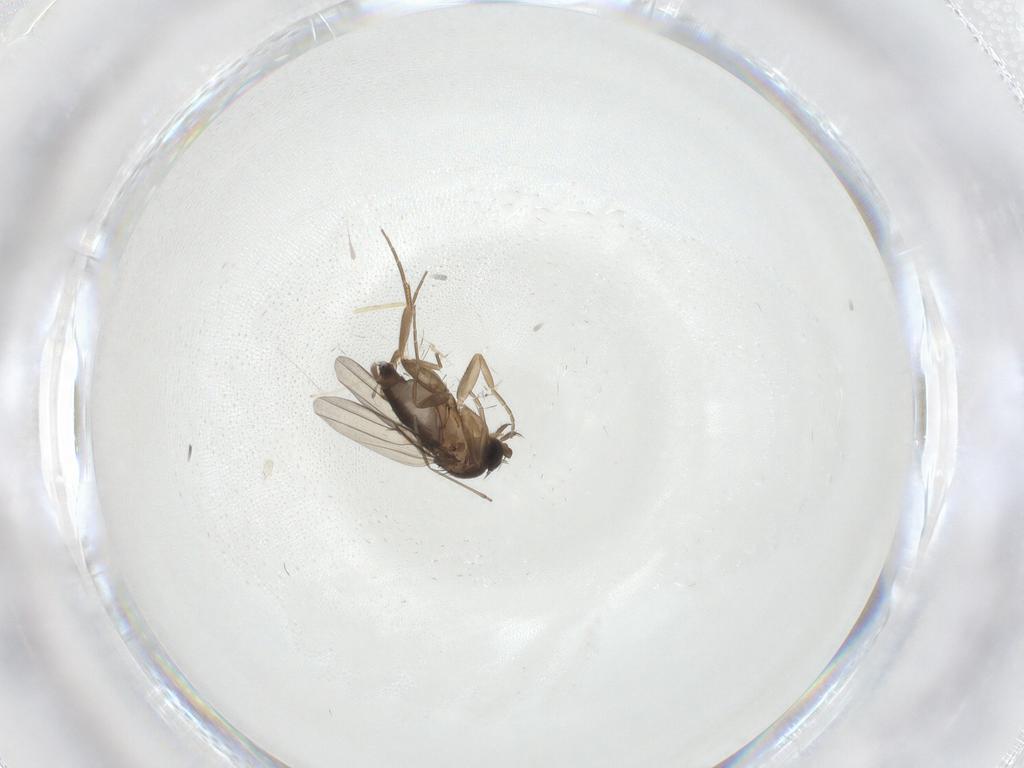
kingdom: Animalia
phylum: Arthropoda
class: Insecta
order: Diptera
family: Phoridae
